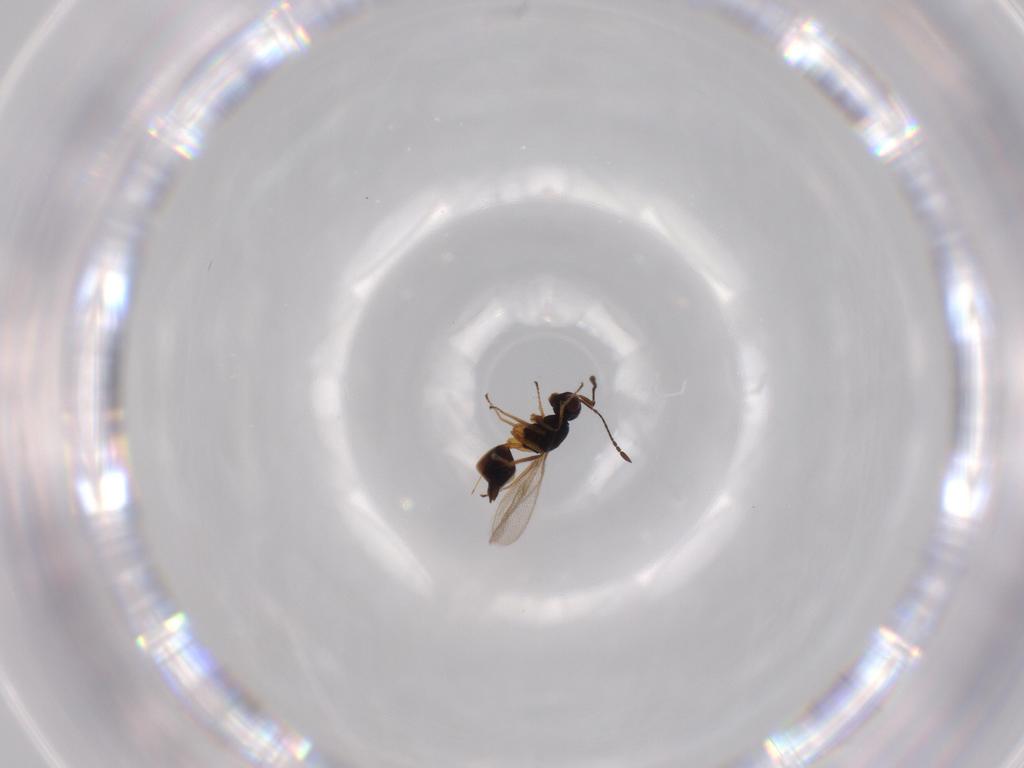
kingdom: Animalia
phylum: Arthropoda
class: Insecta
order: Hymenoptera
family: Mymaridae
